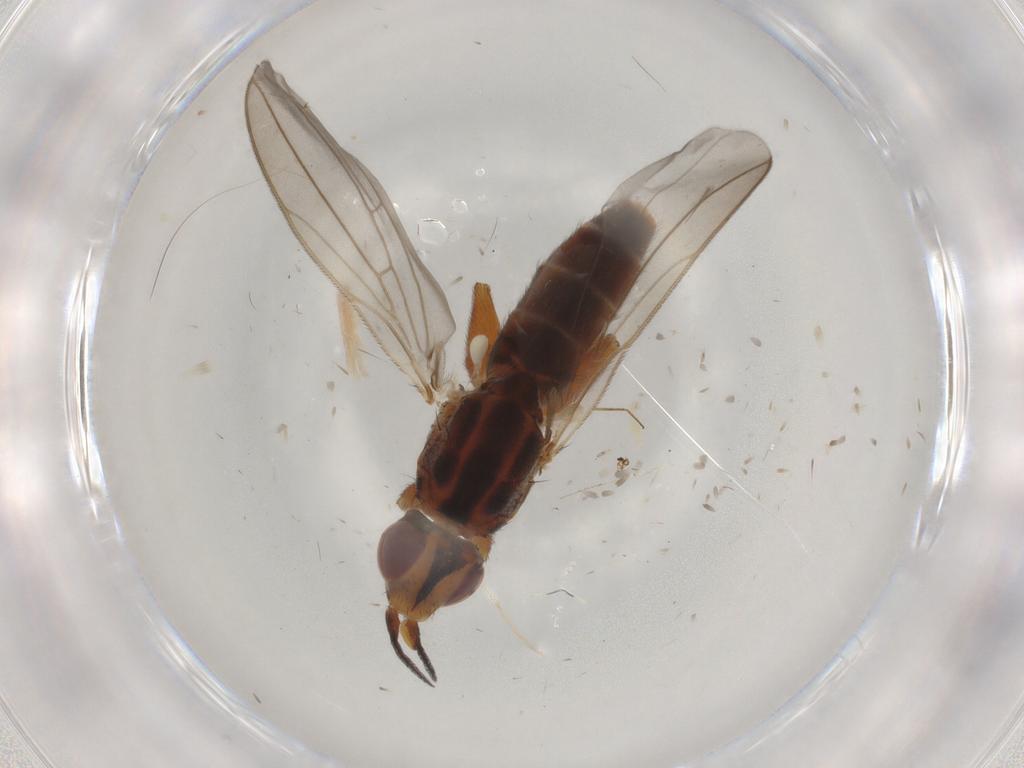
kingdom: Animalia
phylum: Arthropoda
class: Insecta
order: Diptera
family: Chloropidae
